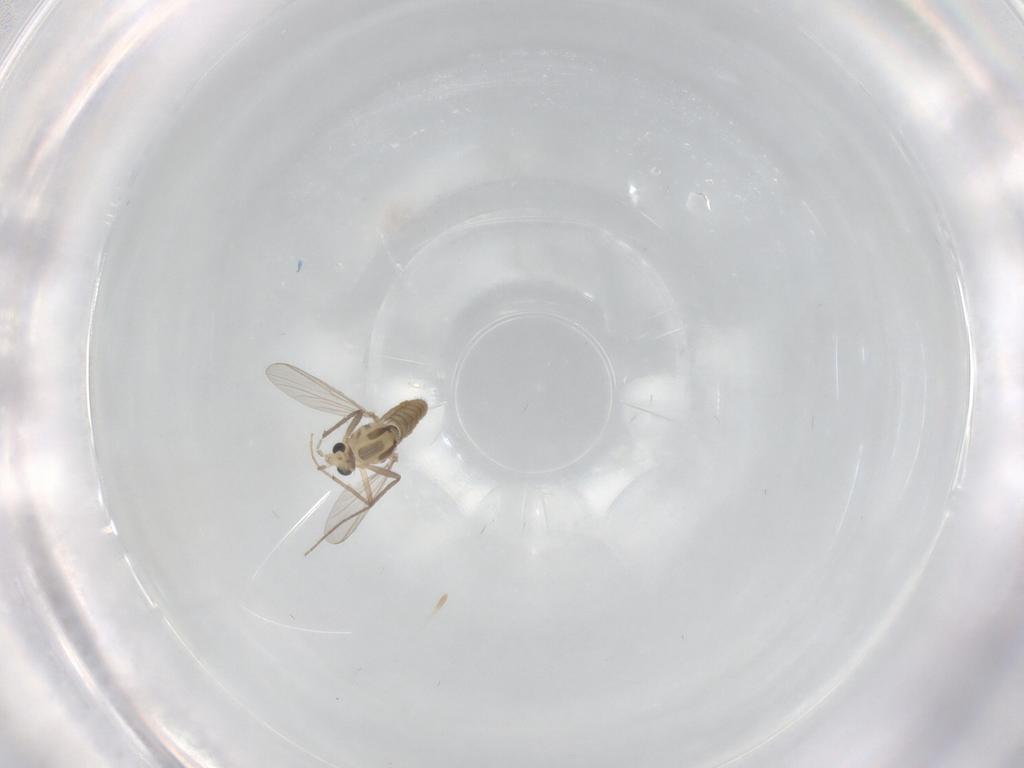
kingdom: Animalia
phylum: Arthropoda
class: Insecta
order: Diptera
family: Chironomidae
